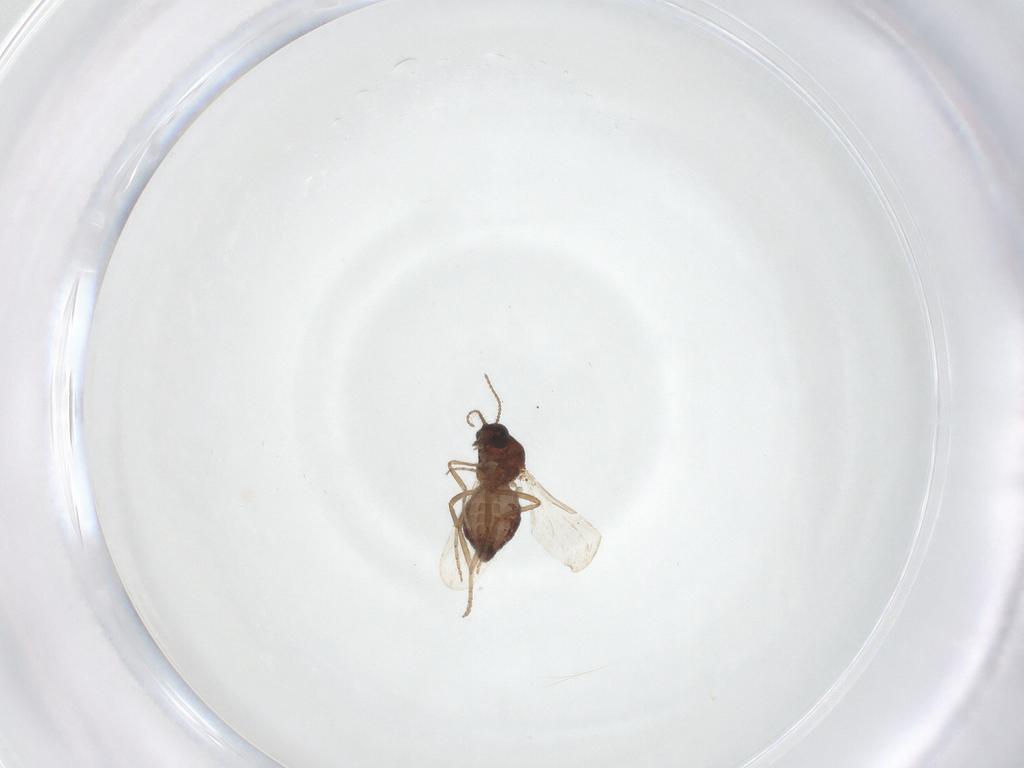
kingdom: Animalia
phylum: Arthropoda
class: Insecta
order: Diptera
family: Ceratopogonidae
